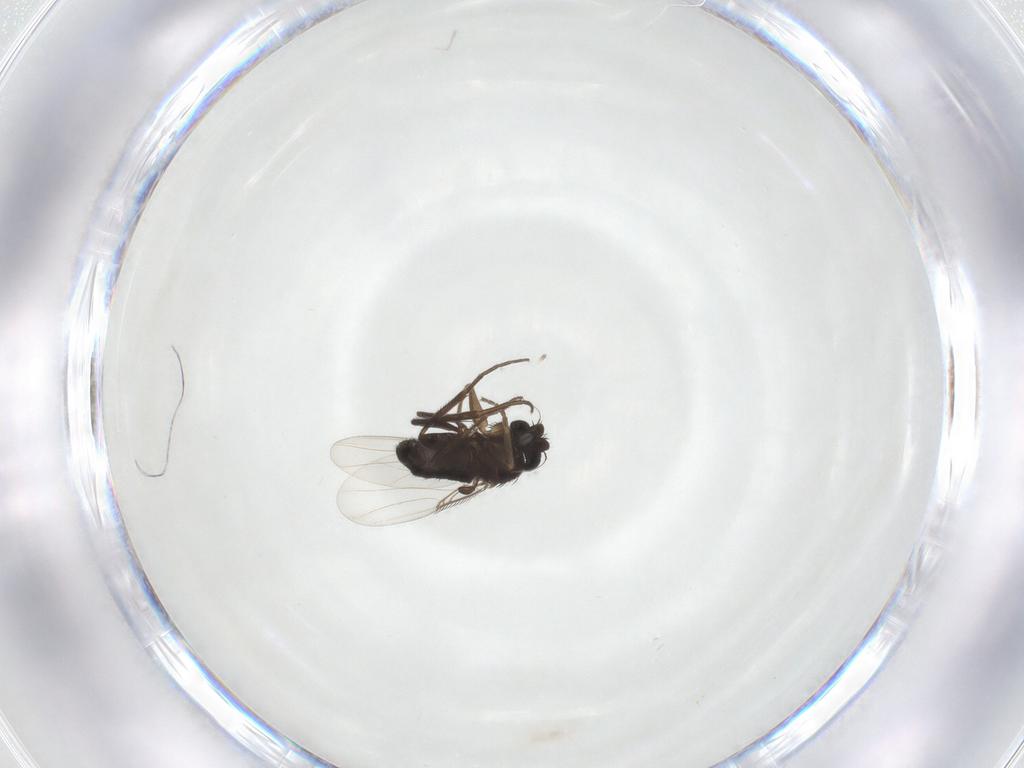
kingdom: Animalia
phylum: Arthropoda
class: Insecta
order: Diptera
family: Phoridae
